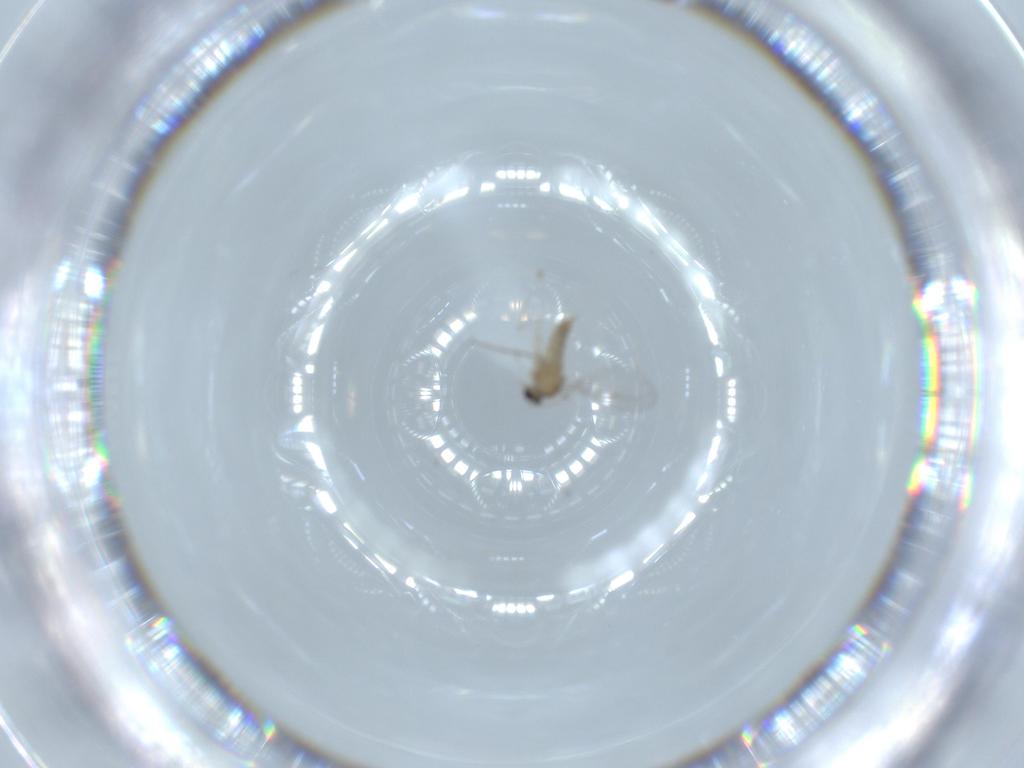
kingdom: Animalia
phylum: Arthropoda
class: Insecta
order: Diptera
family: Cecidomyiidae
